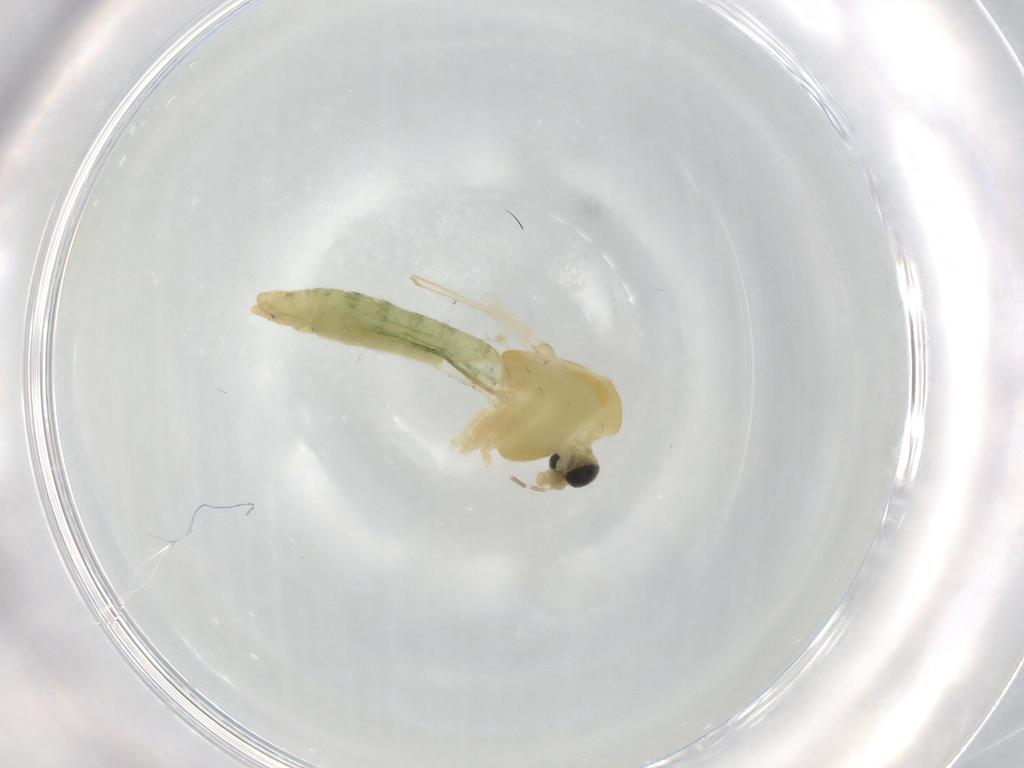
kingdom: Animalia
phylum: Arthropoda
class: Insecta
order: Diptera
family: Chironomidae
